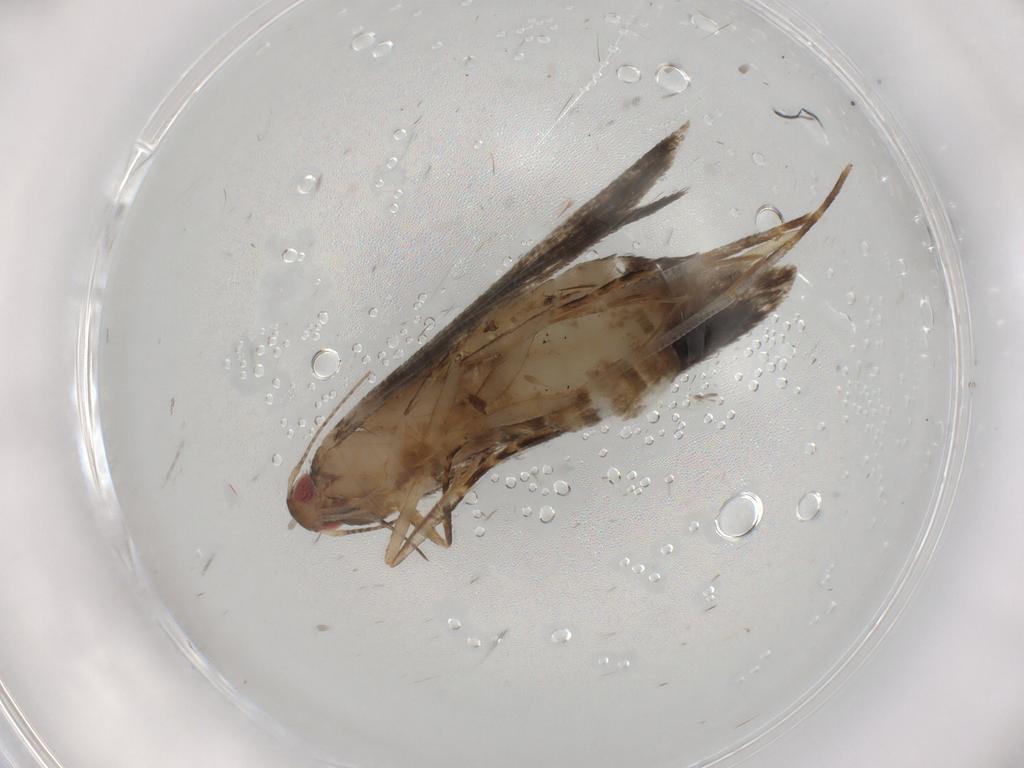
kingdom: Animalia
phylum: Arthropoda
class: Insecta
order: Lepidoptera
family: Gelechiidae
